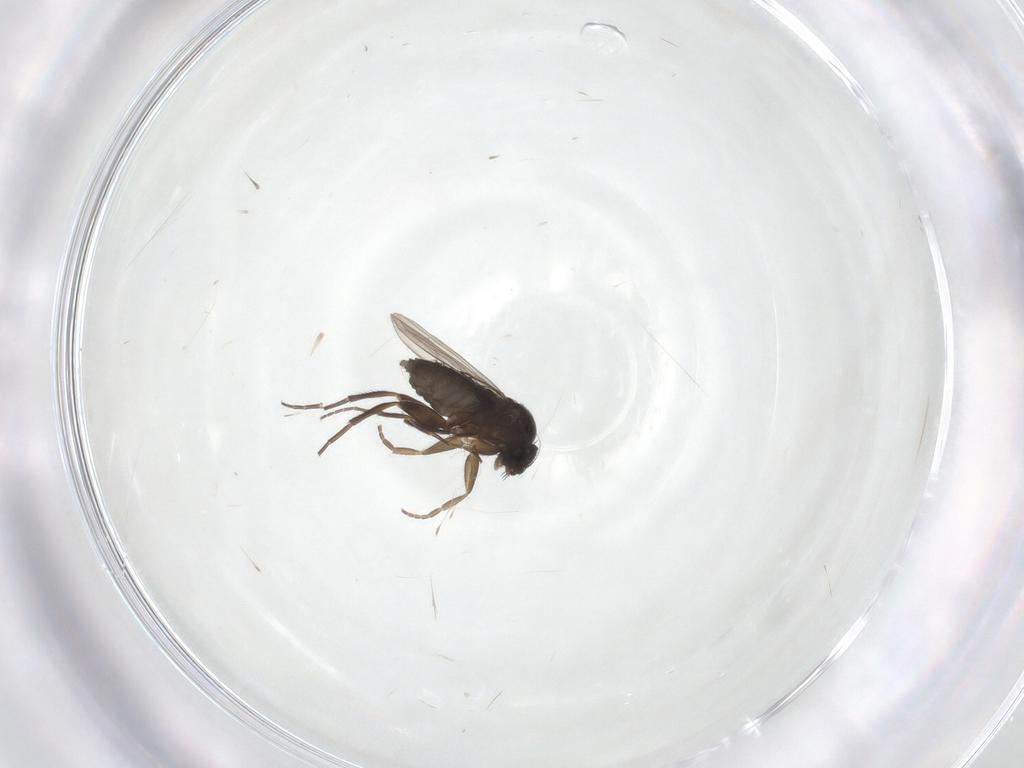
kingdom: Animalia
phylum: Arthropoda
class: Insecta
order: Diptera
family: Phoridae
